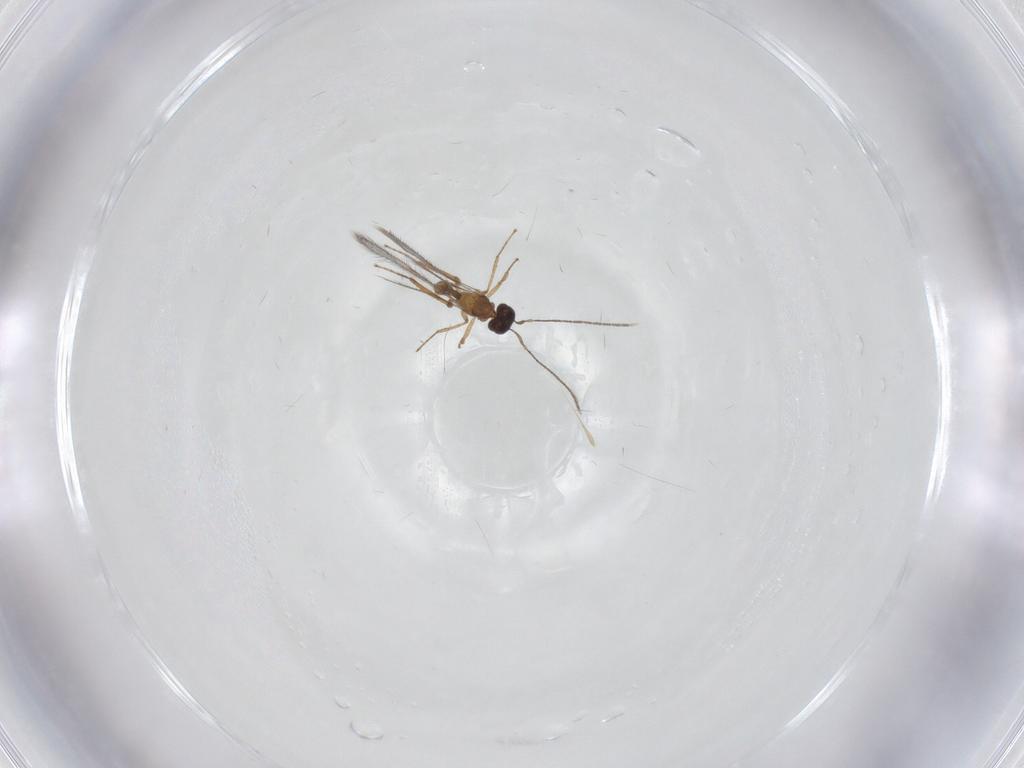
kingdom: Animalia
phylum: Arthropoda
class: Insecta
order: Hymenoptera
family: Mymaridae
